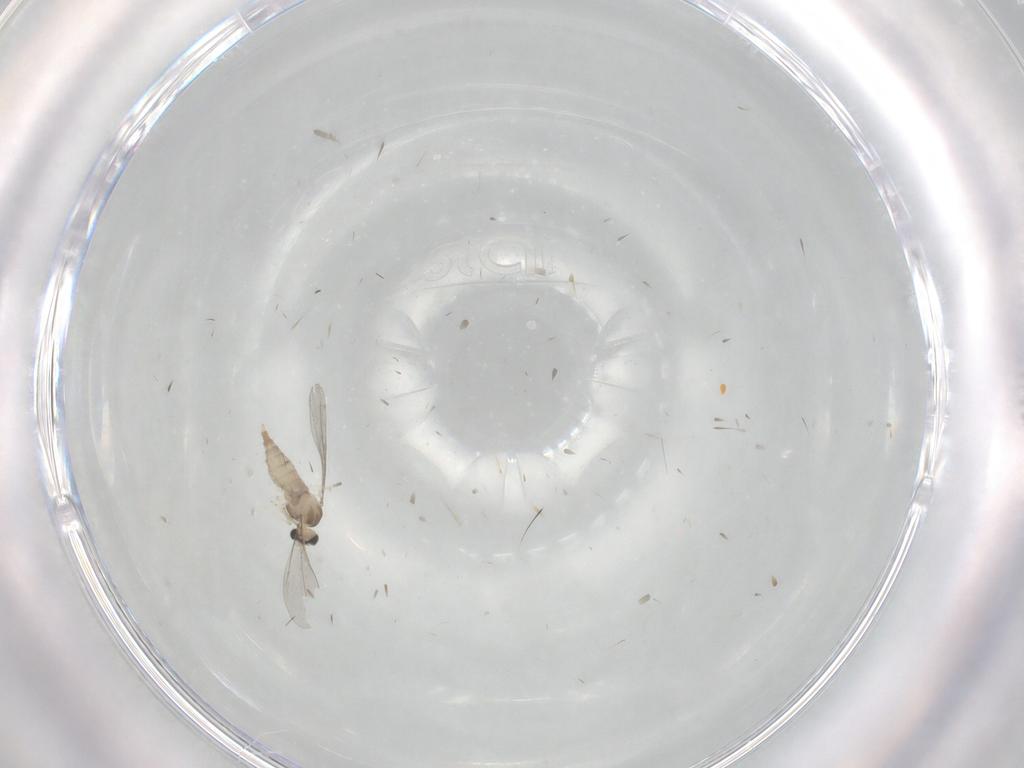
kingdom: Animalia
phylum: Arthropoda
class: Insecta
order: Diptera
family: Cecidomyiidae
